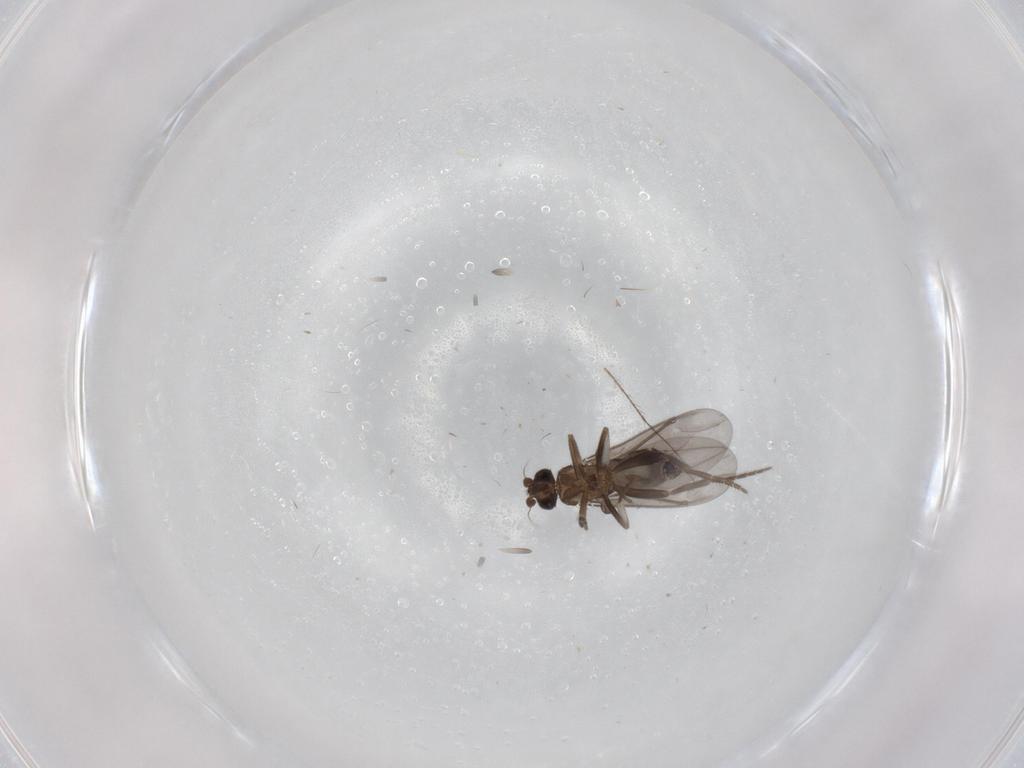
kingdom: Animalia
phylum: Arthropoda
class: Insecta
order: Diptera
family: Phoridae
